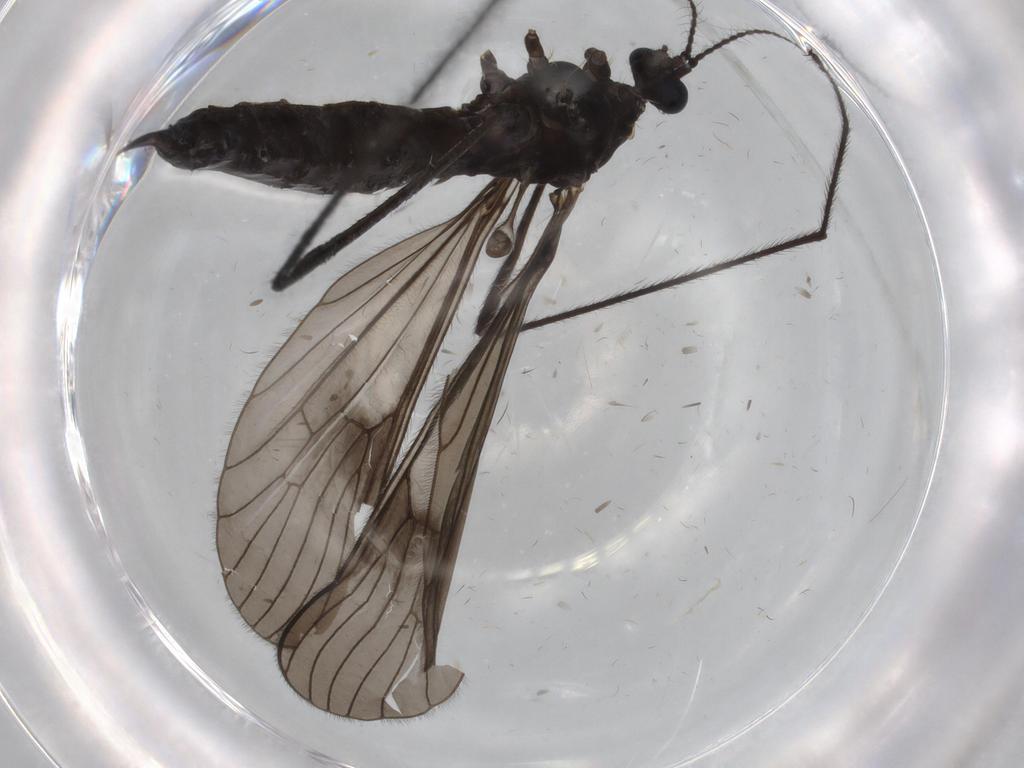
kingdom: Animalia
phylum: Arthropoda
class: Insecta
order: Diptera
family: Limoniidae
